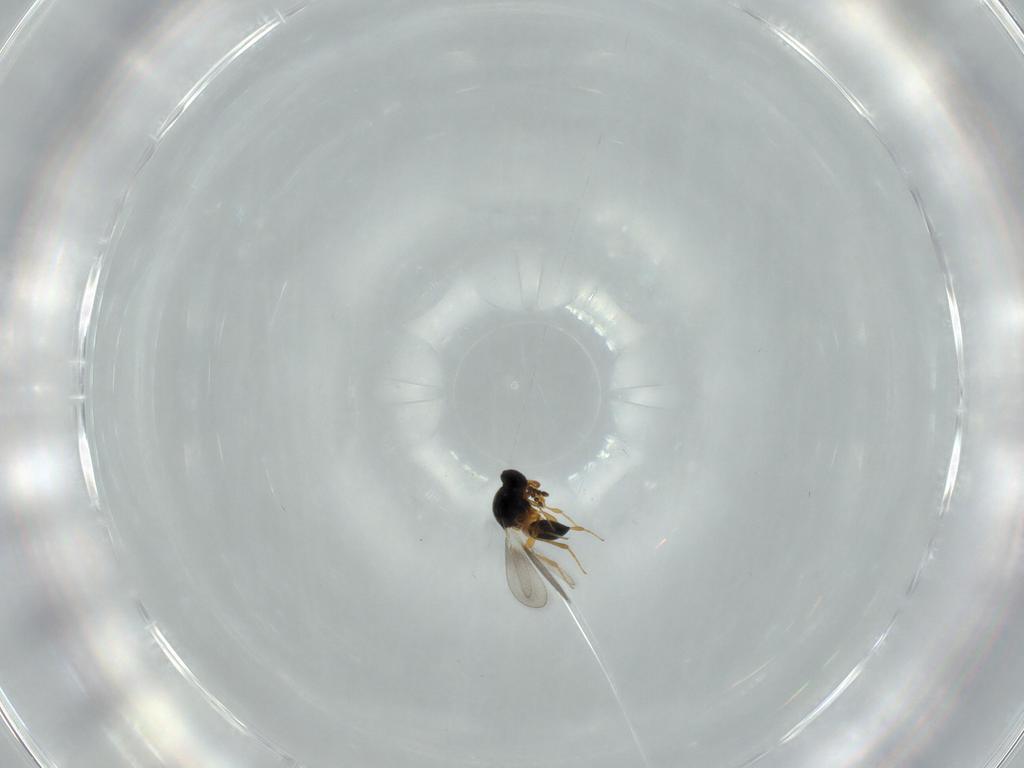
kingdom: Animalia
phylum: Arthropoda
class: Insecta
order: Hymenoptera
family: Platygastridae
